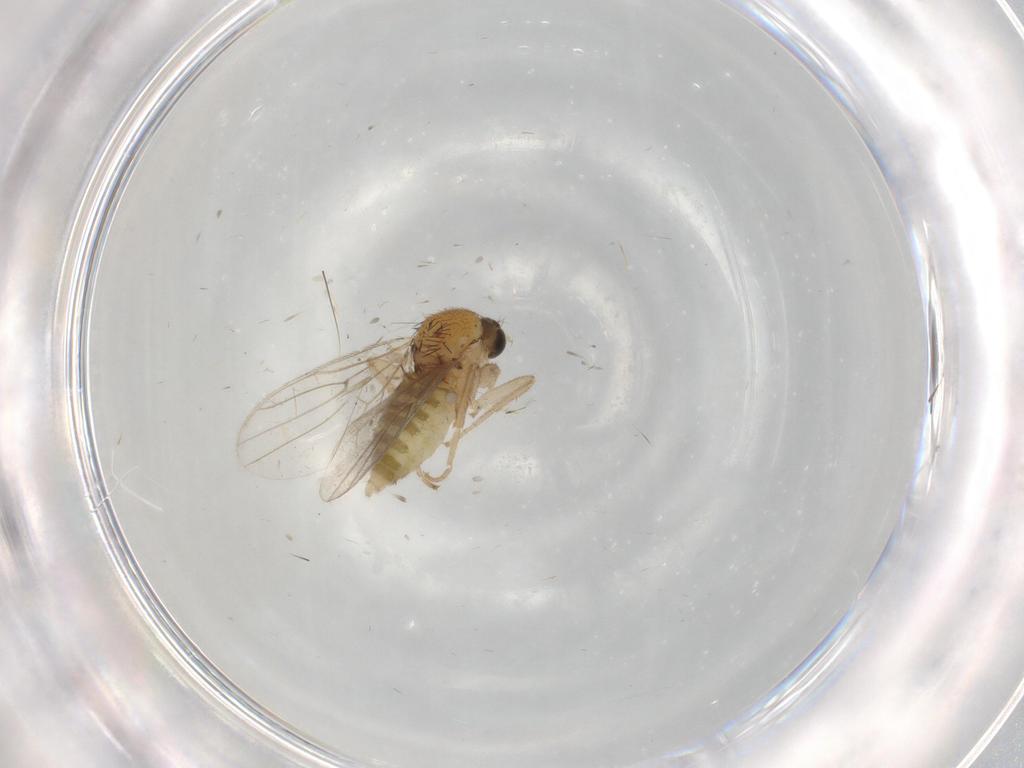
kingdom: Animalia
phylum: Arthropoda
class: Insecta
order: Diptera
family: Hybotidae
